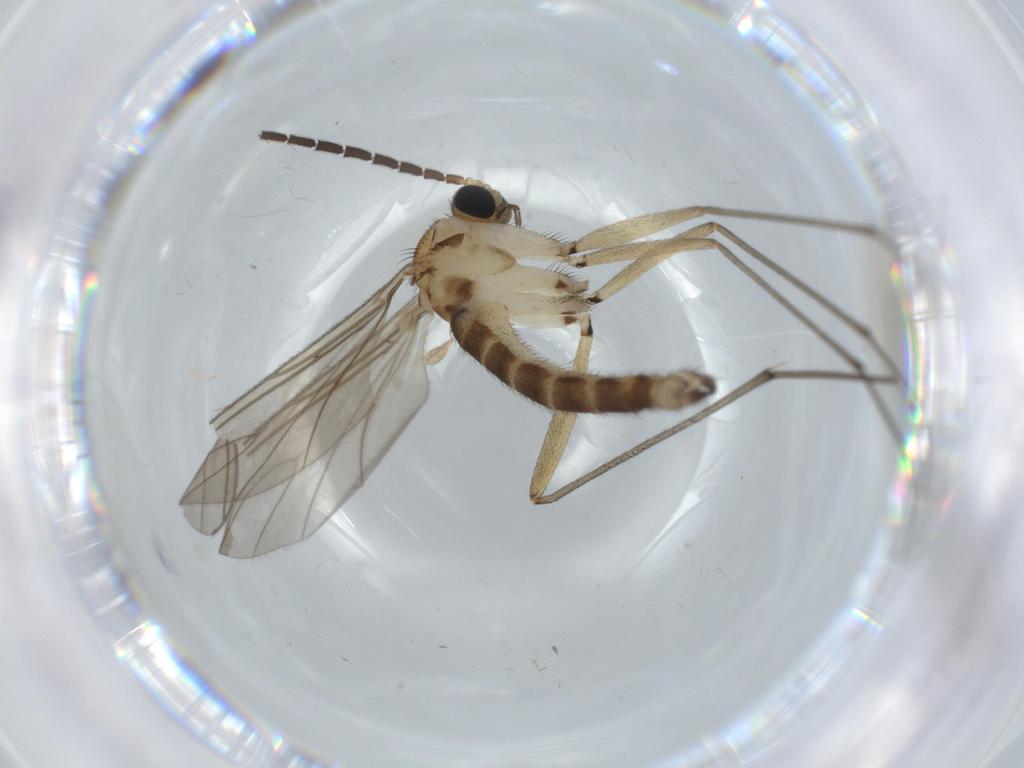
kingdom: Animalia
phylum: Arthropoda
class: Insecta
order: Diptera
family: Sciaridae
